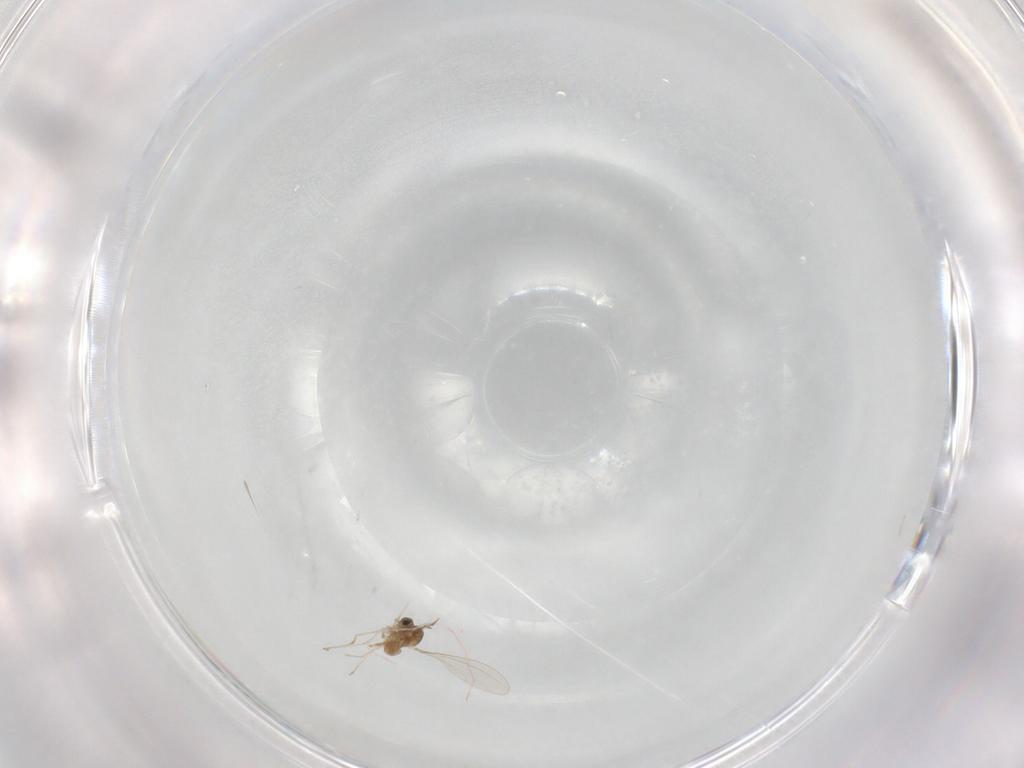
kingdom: Animalia
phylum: Arthropoda
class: Insecta
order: Diptera
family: Cecidomyiidae
